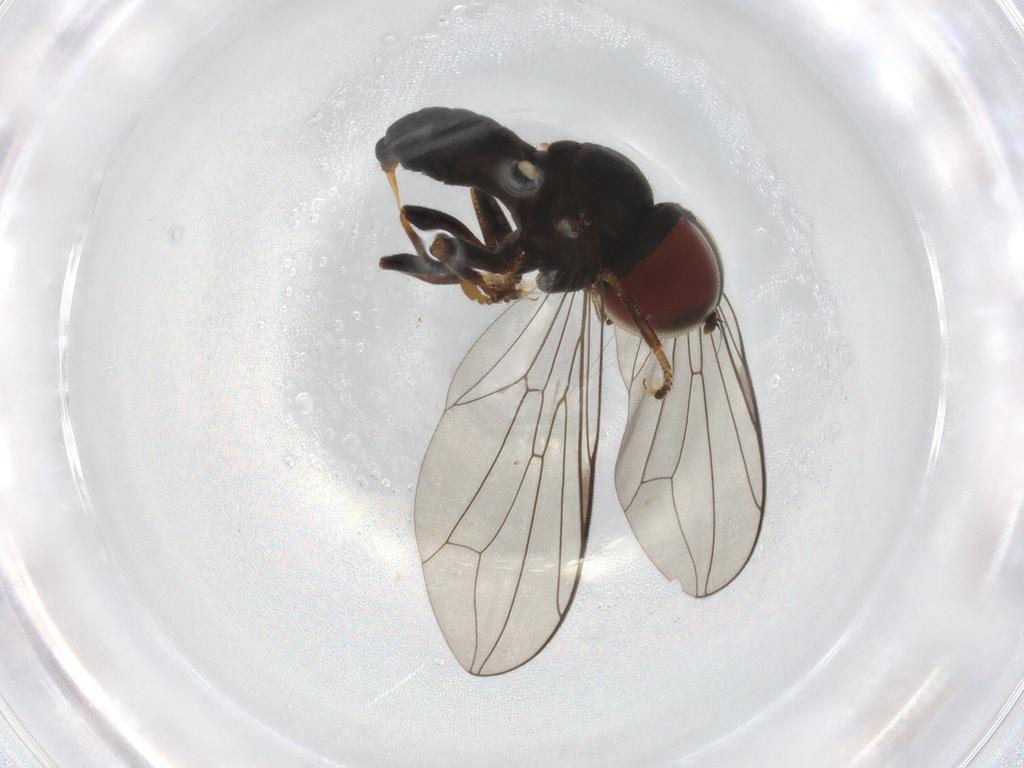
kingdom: Animalia
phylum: Arthropoda
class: Insecta
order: Diptera
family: Pipunculidae
